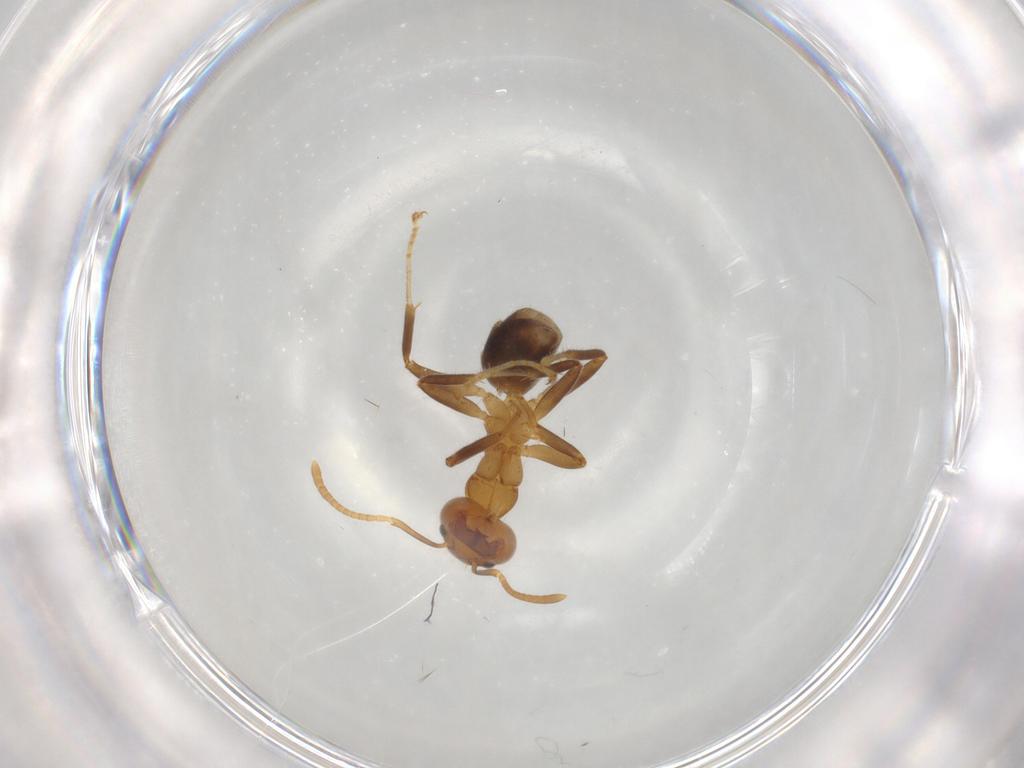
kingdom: Animalia
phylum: Arthropoda
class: Insecta
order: Hymenoptera
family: Formicidae
